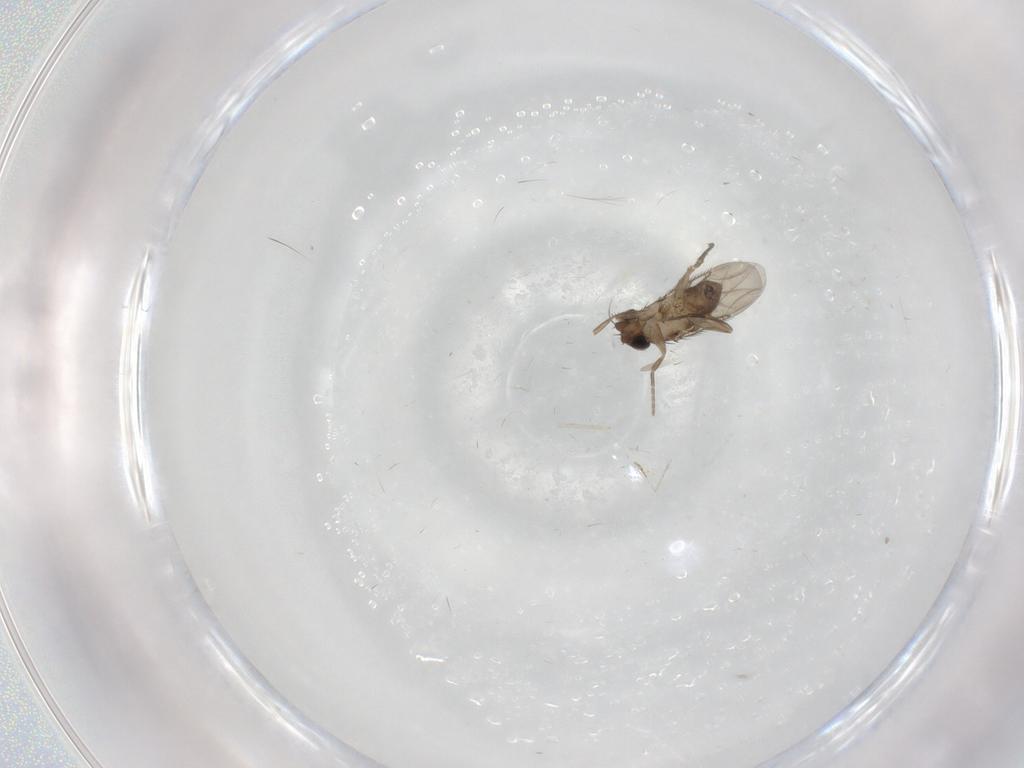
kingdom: Animalia
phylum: Arthropoda
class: Insecta
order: Diptera
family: Phoridae
